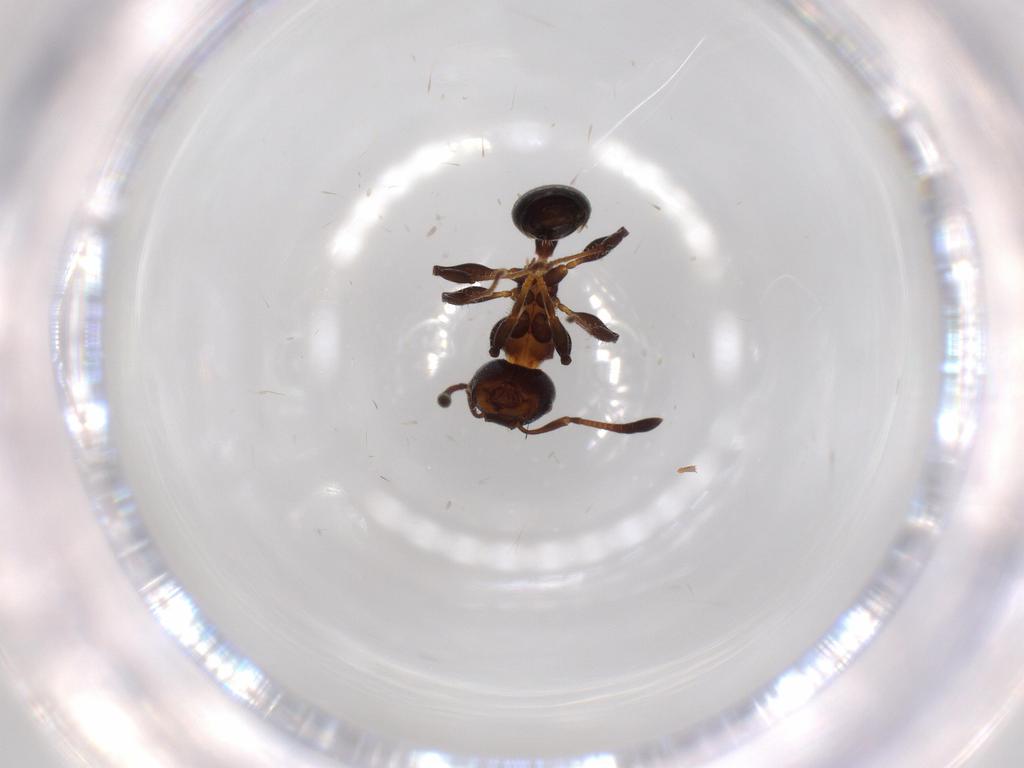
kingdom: Animalia
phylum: Arthropoda
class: Insecta
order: Hymenoptera
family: Formicidae
